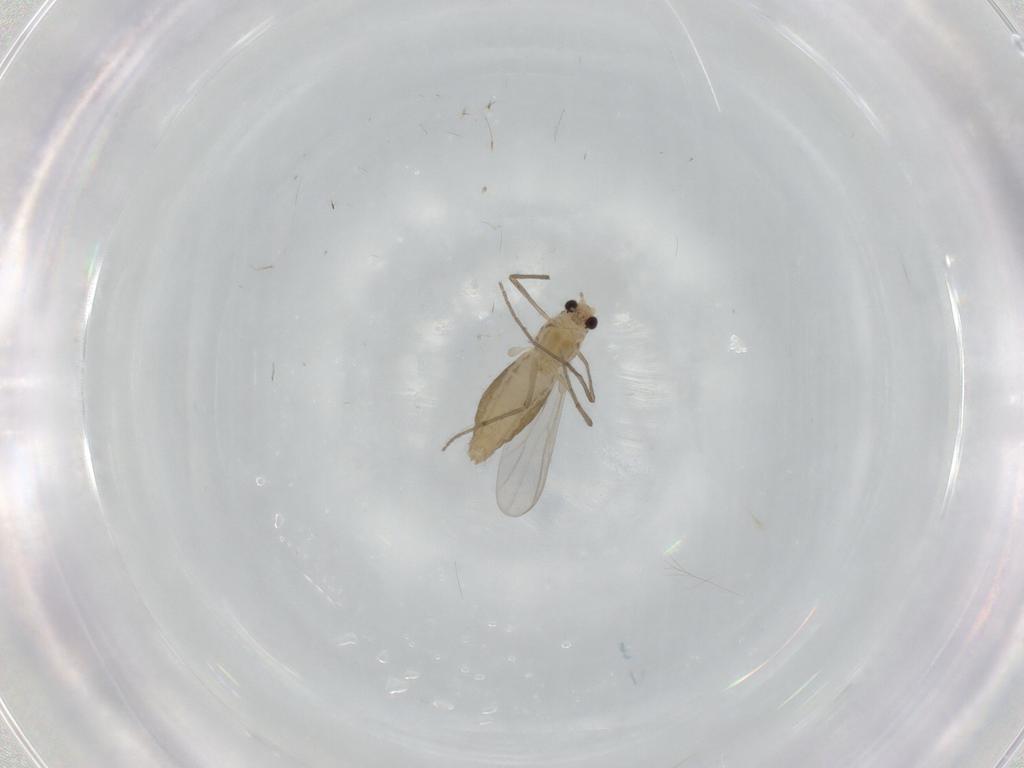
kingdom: Animalia
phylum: Arthropoda
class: Insecta
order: Diptera
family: Chironomidae
